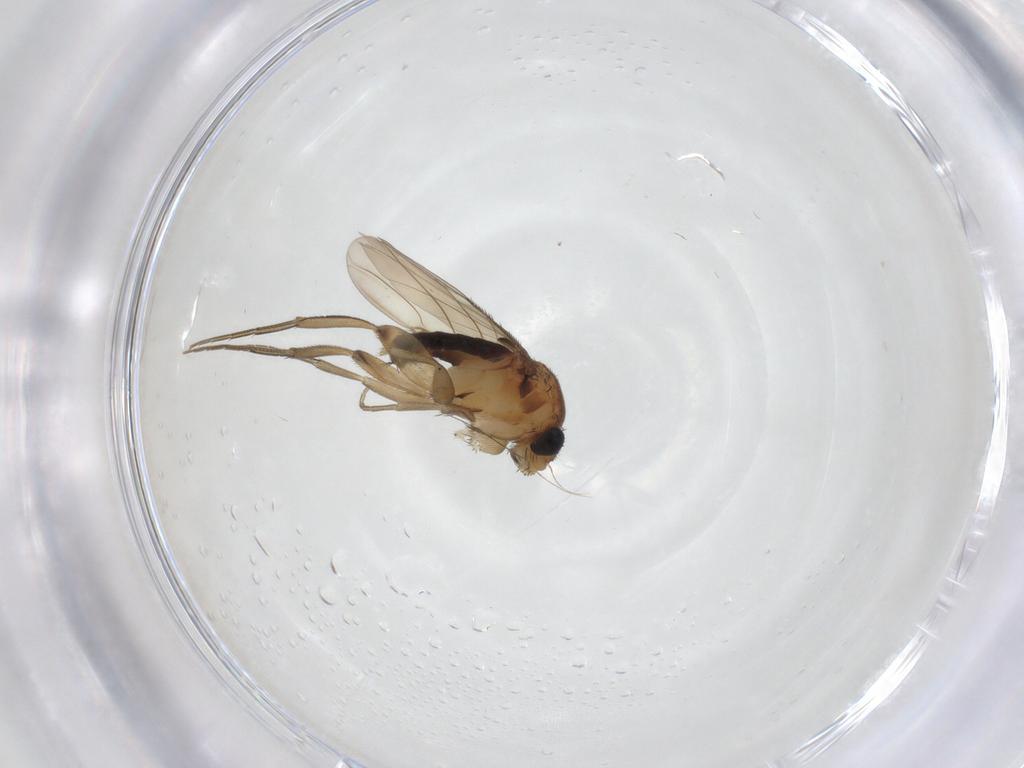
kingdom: Animalia
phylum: Arthropoda
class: Insecta
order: Diptera
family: Phoridae
